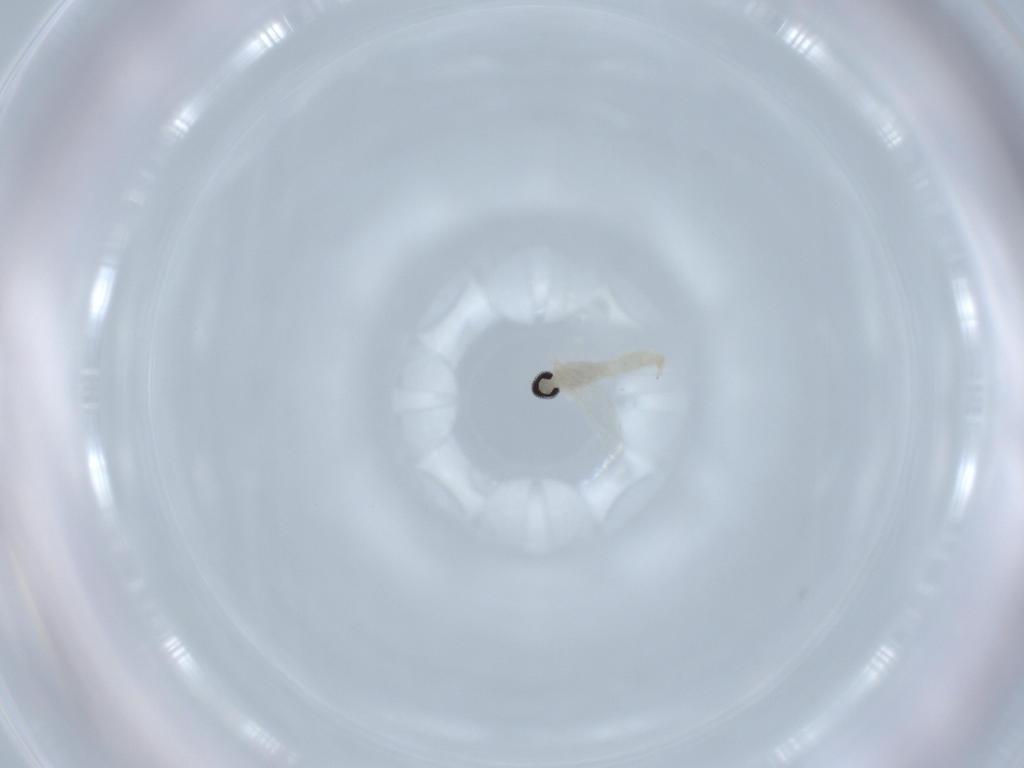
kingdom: Animalia
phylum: Arthropoda
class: Insecta
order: Diptera
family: Cecidomyiidae
